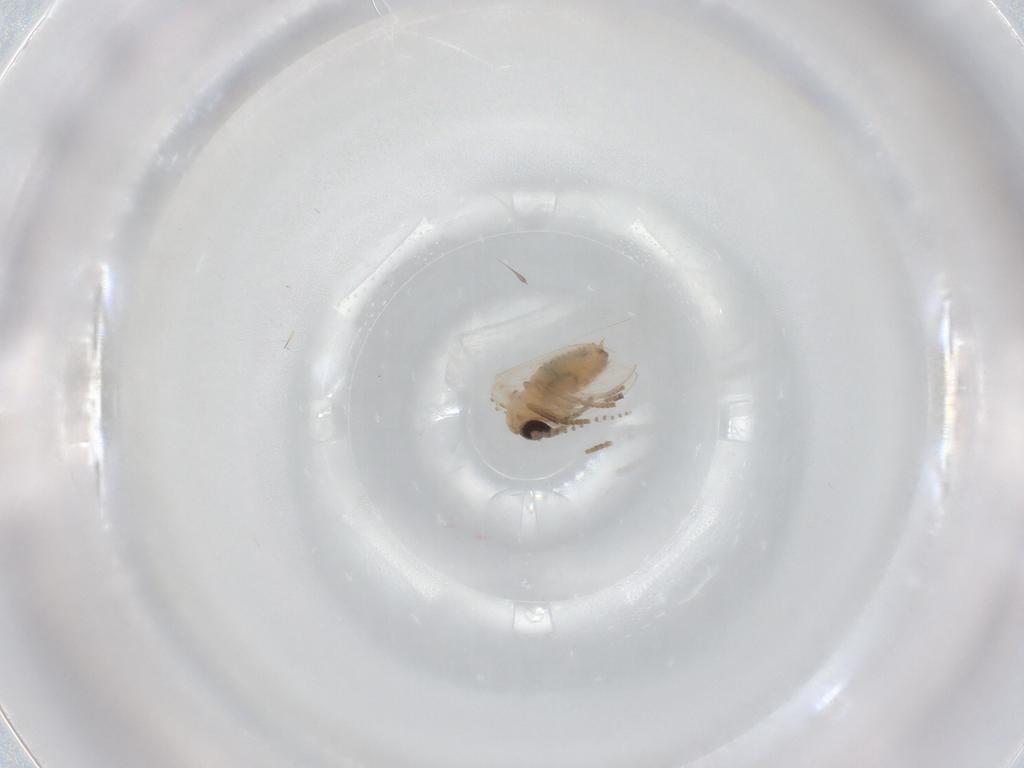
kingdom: Animalia
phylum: Arthropoda
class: Insecta
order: Diptera
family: Psychodidae
